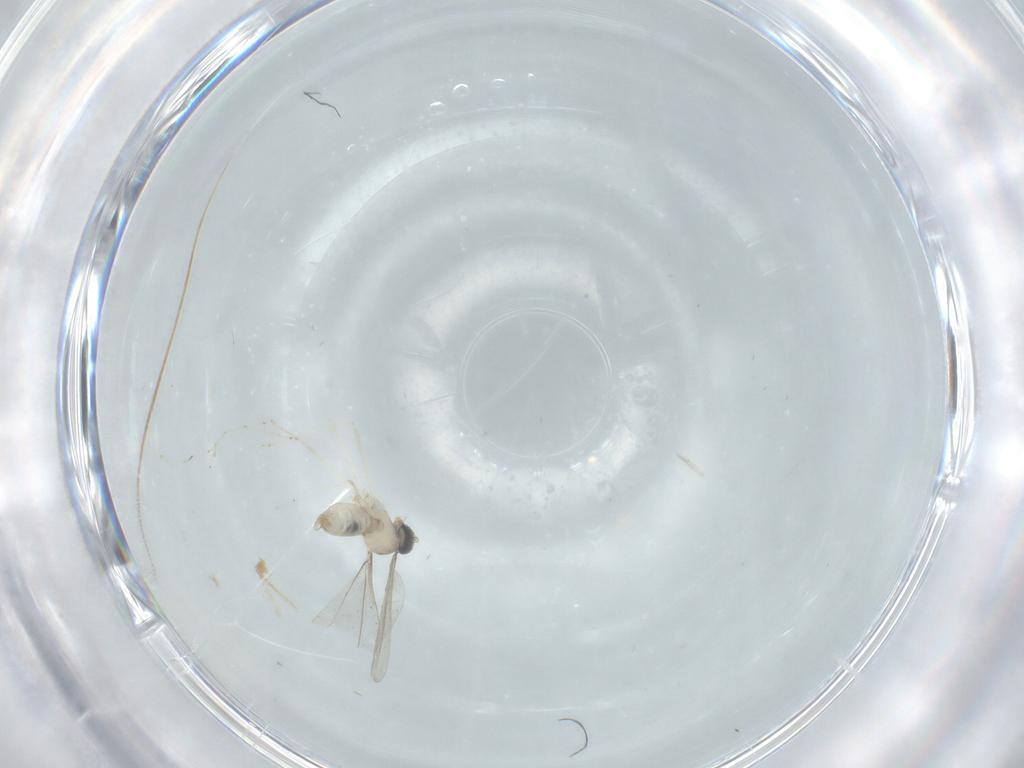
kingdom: Animalia
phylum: Arthropoda
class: Insecta
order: Diptera
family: Cecidomyiidae
